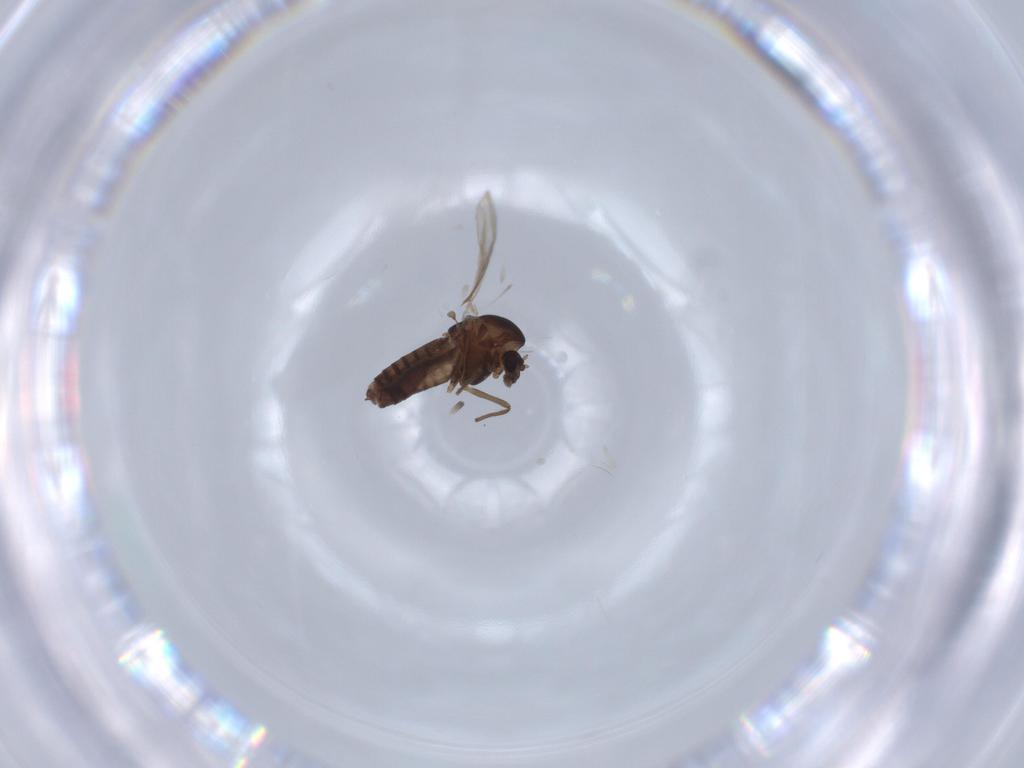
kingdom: Animalia
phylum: Arthropoda
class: Insecta
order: Diptera
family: Chironomidae
